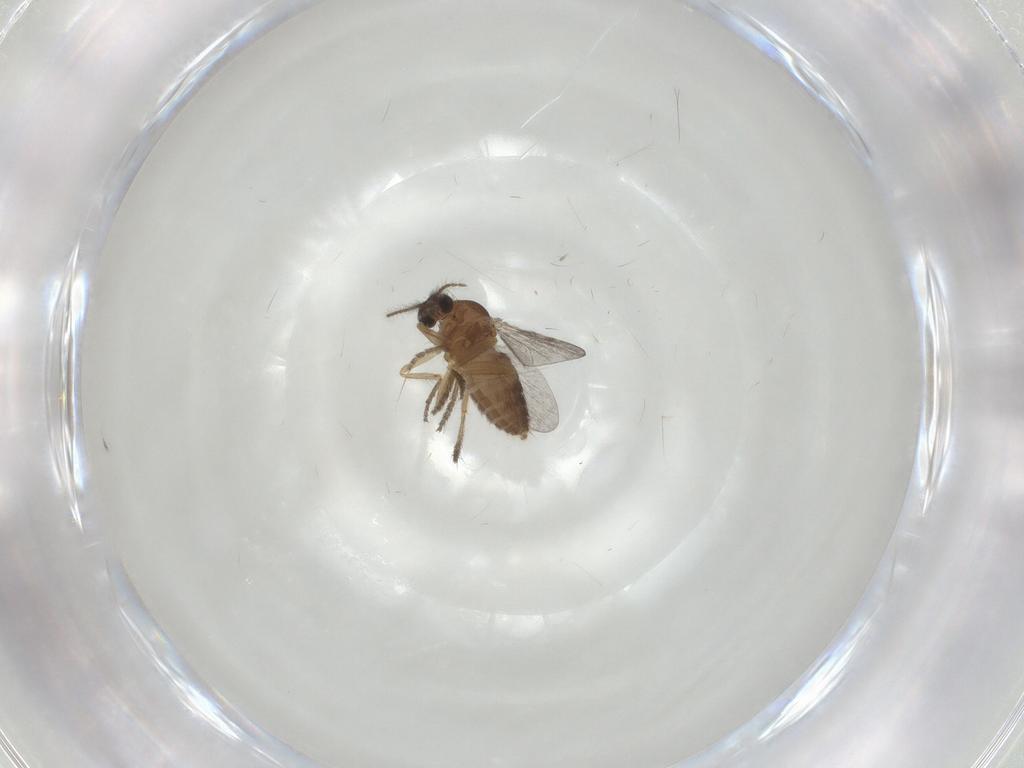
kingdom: Animalia
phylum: Arthropoda
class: Insecta
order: Diptera
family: Chironomidae
